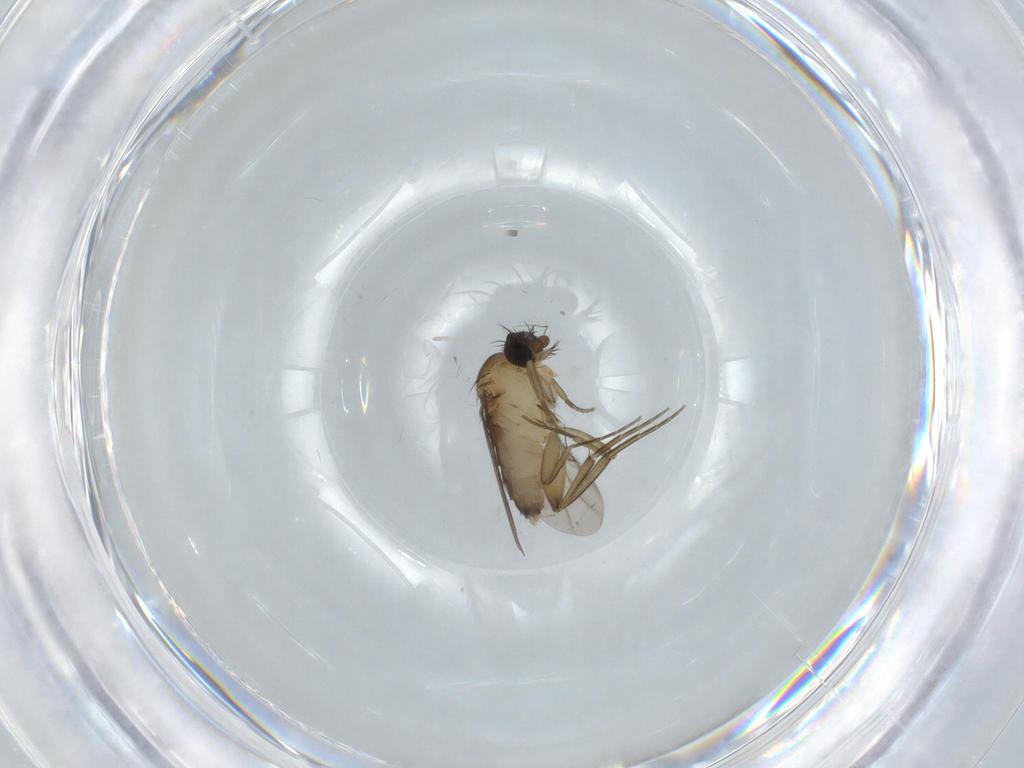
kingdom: Animalia
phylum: Arthropoda
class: Insecta
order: Diptera
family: Phoridae
